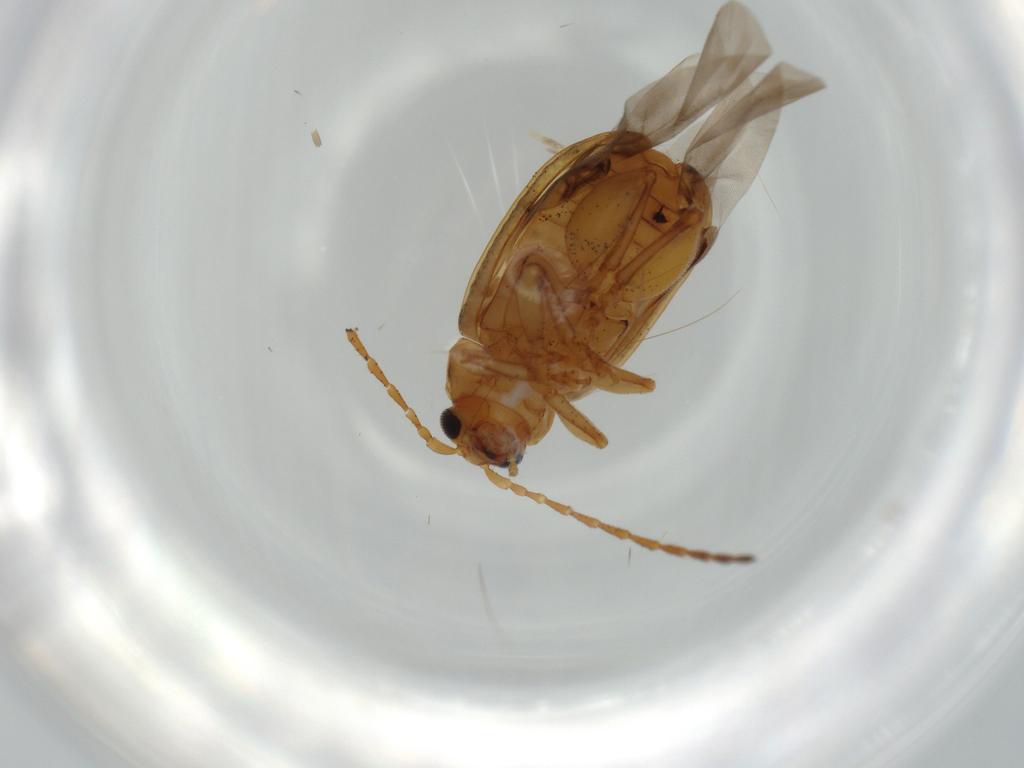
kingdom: Animalia
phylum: Arthropoda
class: Insecta
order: Coleoptera
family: Chrysomelidae
